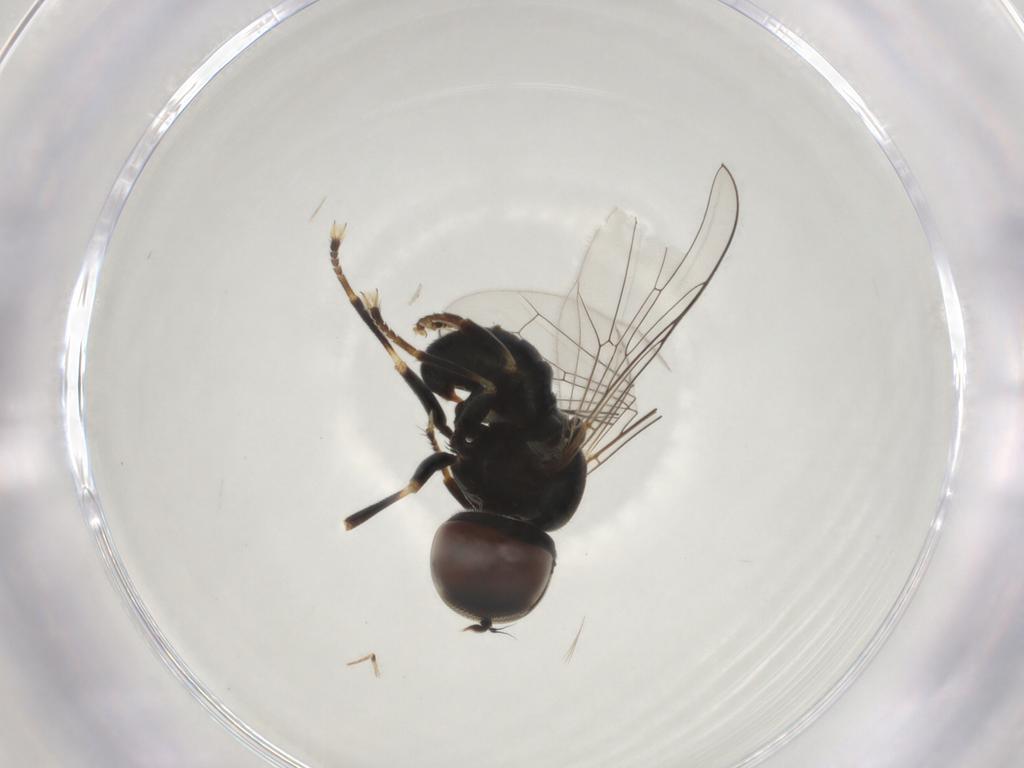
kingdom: Animalia
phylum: Arthropoda
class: Insecta
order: Diptera
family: Pipunculidae
